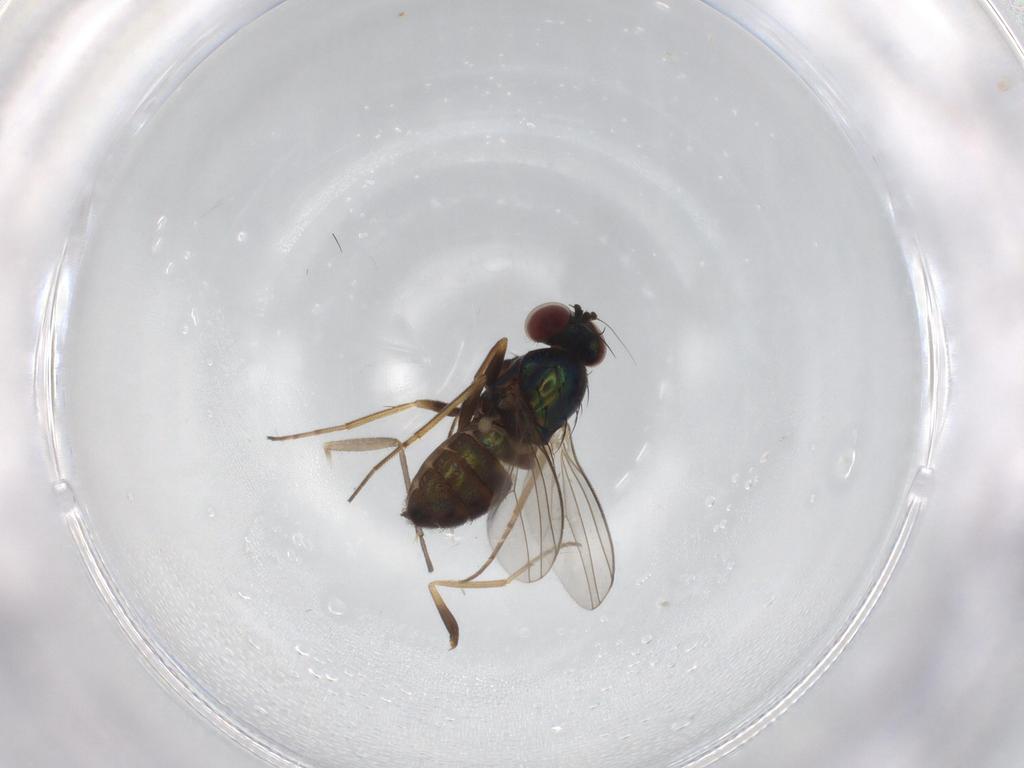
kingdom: Animalia
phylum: Arthropoda
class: Insecta
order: Diptera
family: Dolichopodidae
